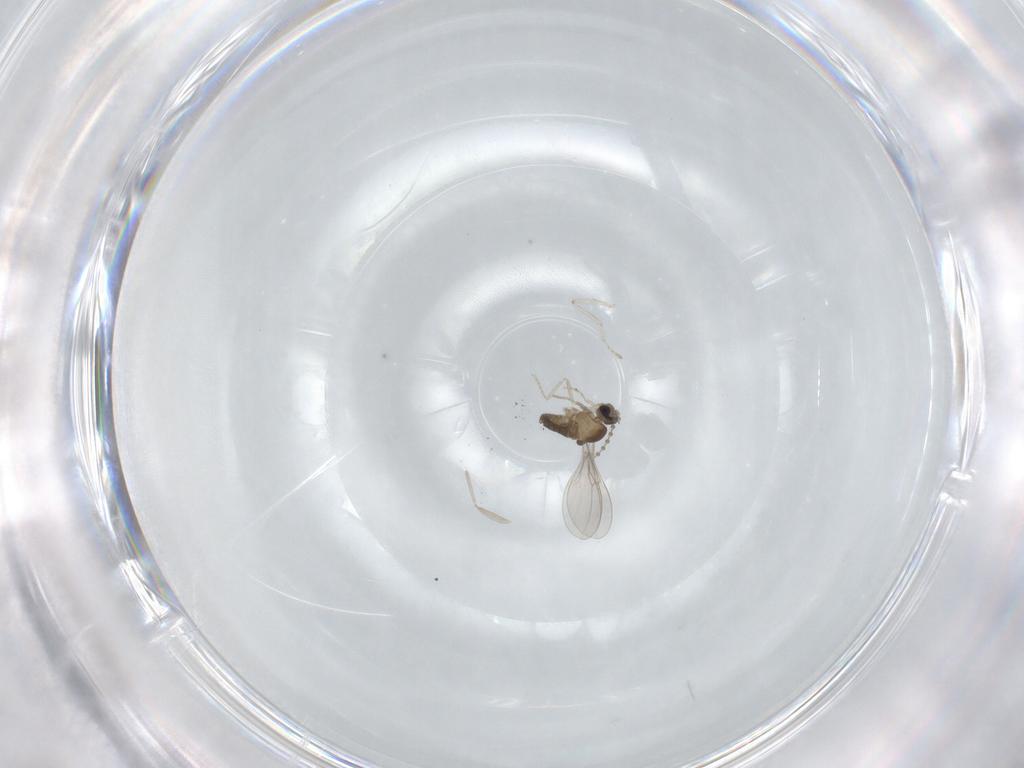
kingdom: Animalia
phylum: Arthropoda
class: Insecta
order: Diptera
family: Cecidomyiidae
